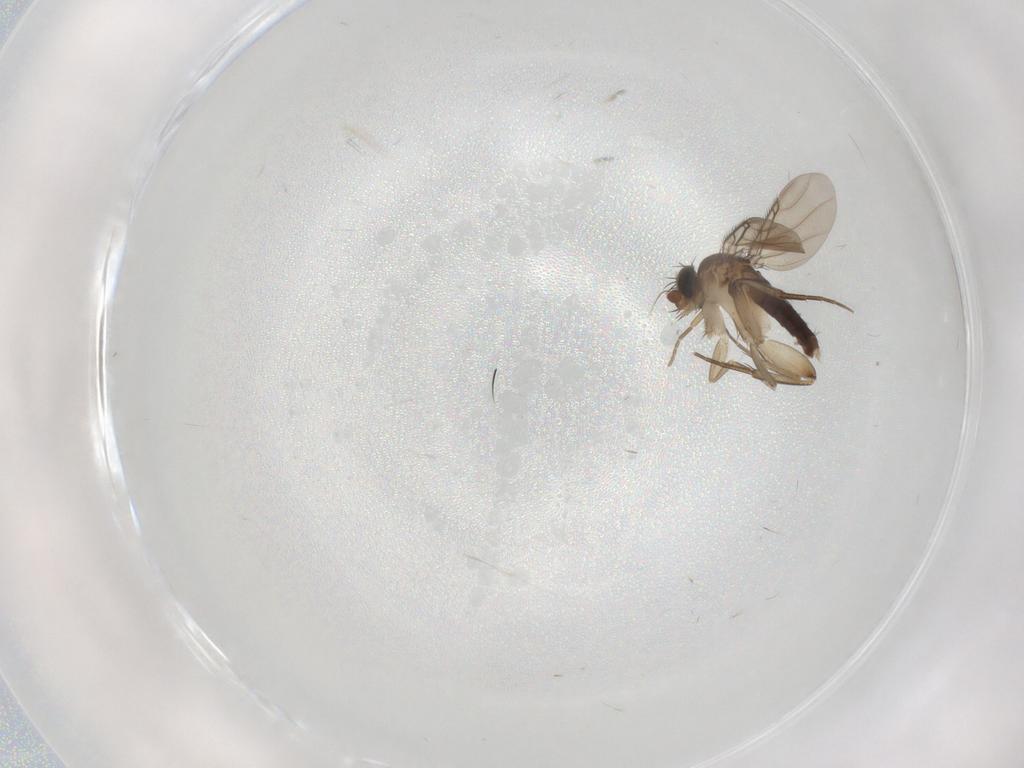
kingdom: Animalia
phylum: Arthropoda
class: Insecta
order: Diptera
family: Phoridae
